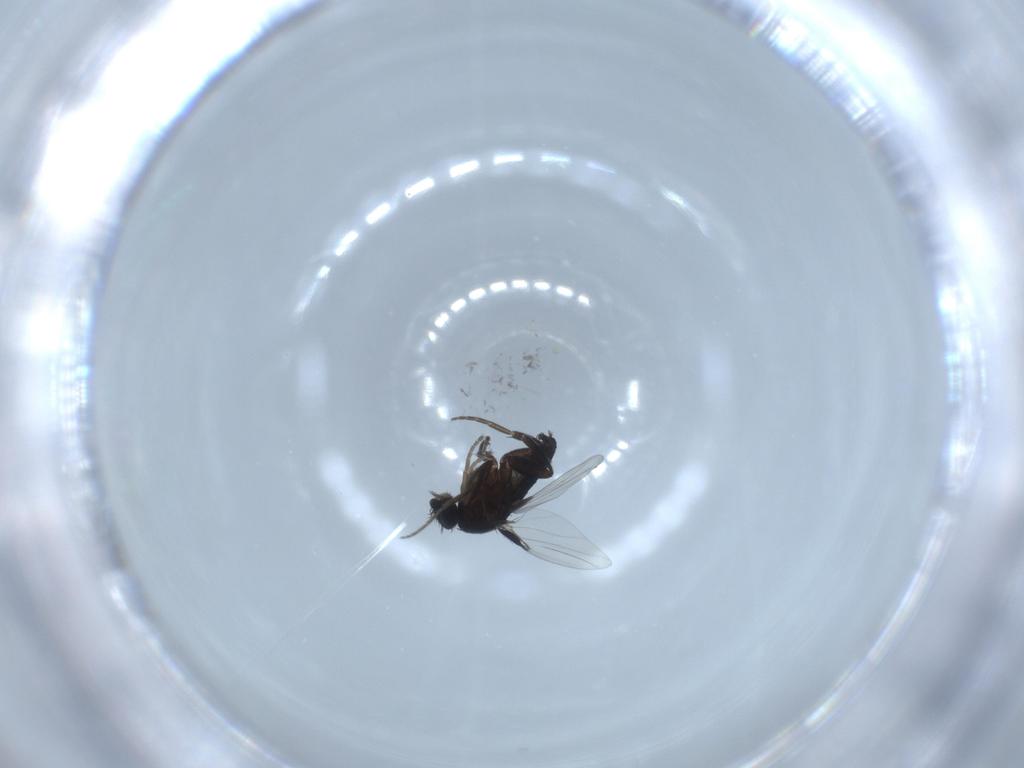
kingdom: Animalia
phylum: Arthropoda
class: Insecta
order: Diptera
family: Phoridae
